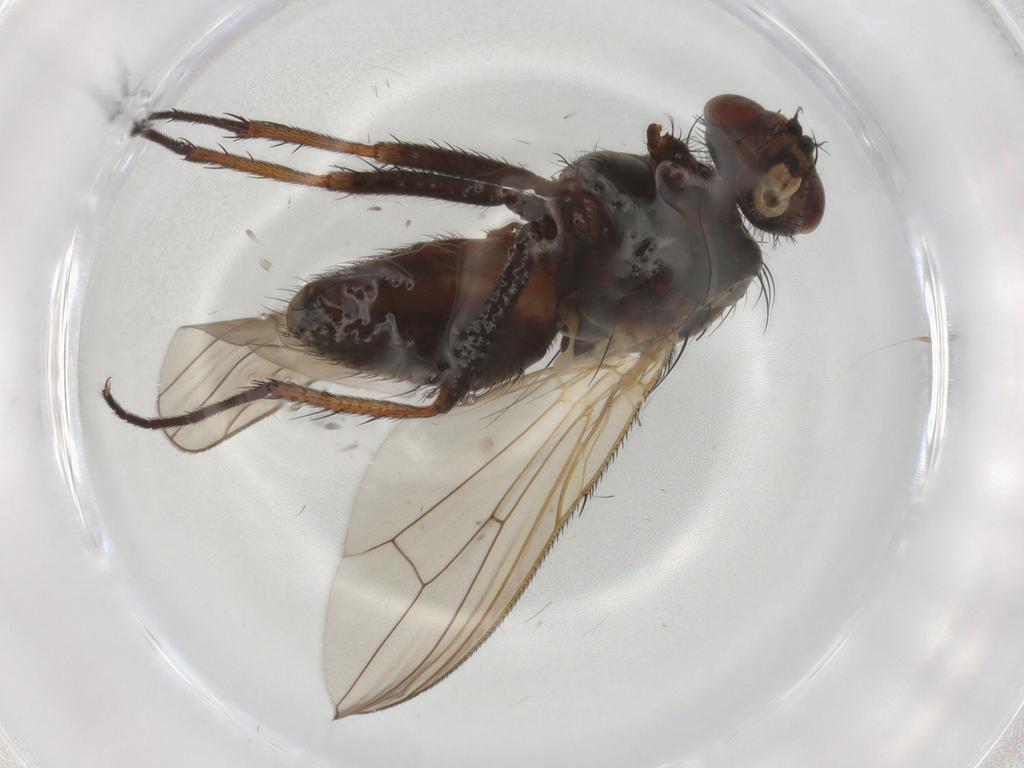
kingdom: Animalia
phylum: Arthropoda
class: Insecta
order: Diptera
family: Anthomyiidae
